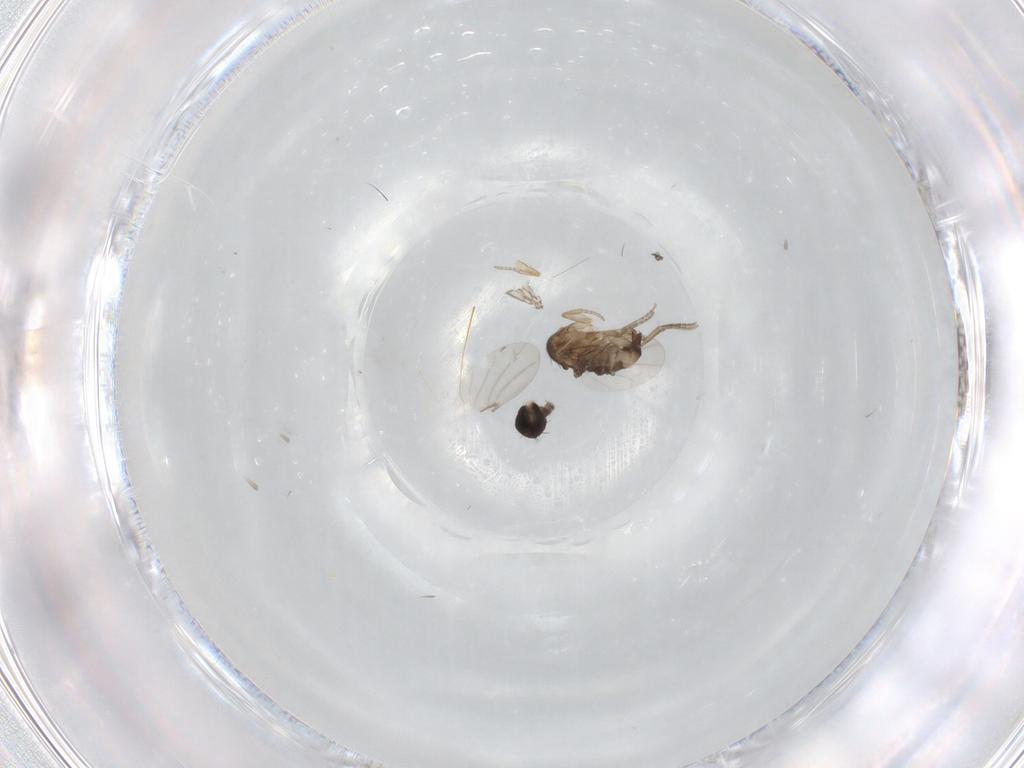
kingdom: Animalia
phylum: Arthropoda
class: Insecta
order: Diptera
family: Phoridae
